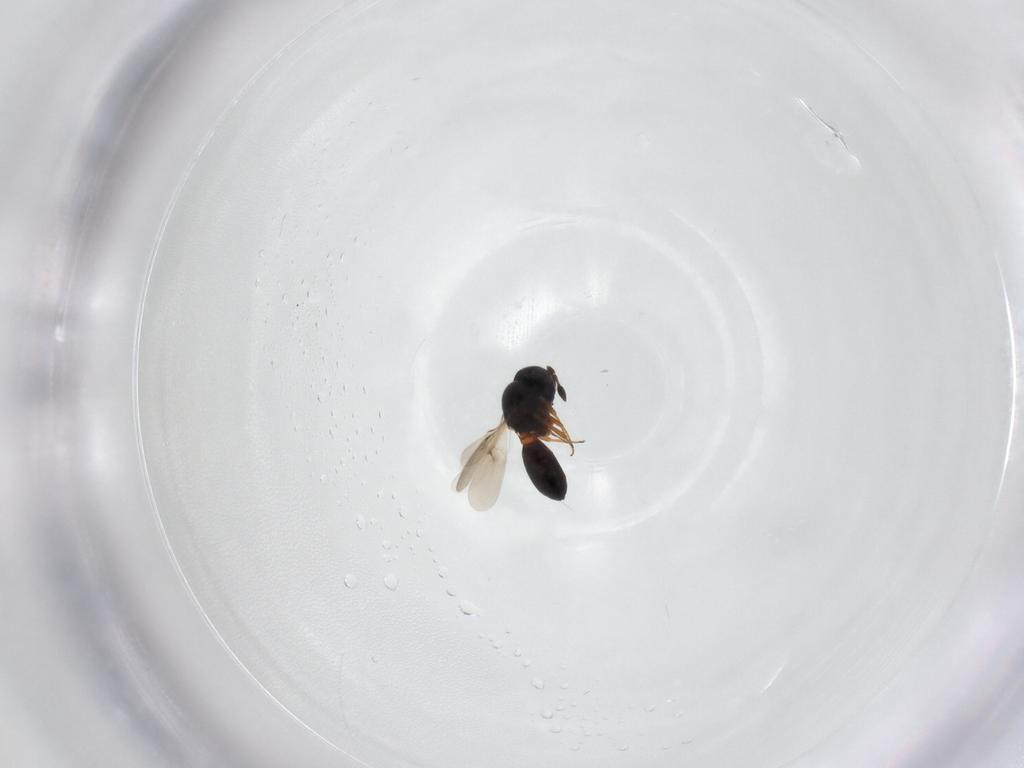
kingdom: Animalia
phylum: Arthropoda
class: Insecta
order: Hymenoptera
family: Scelionidae
